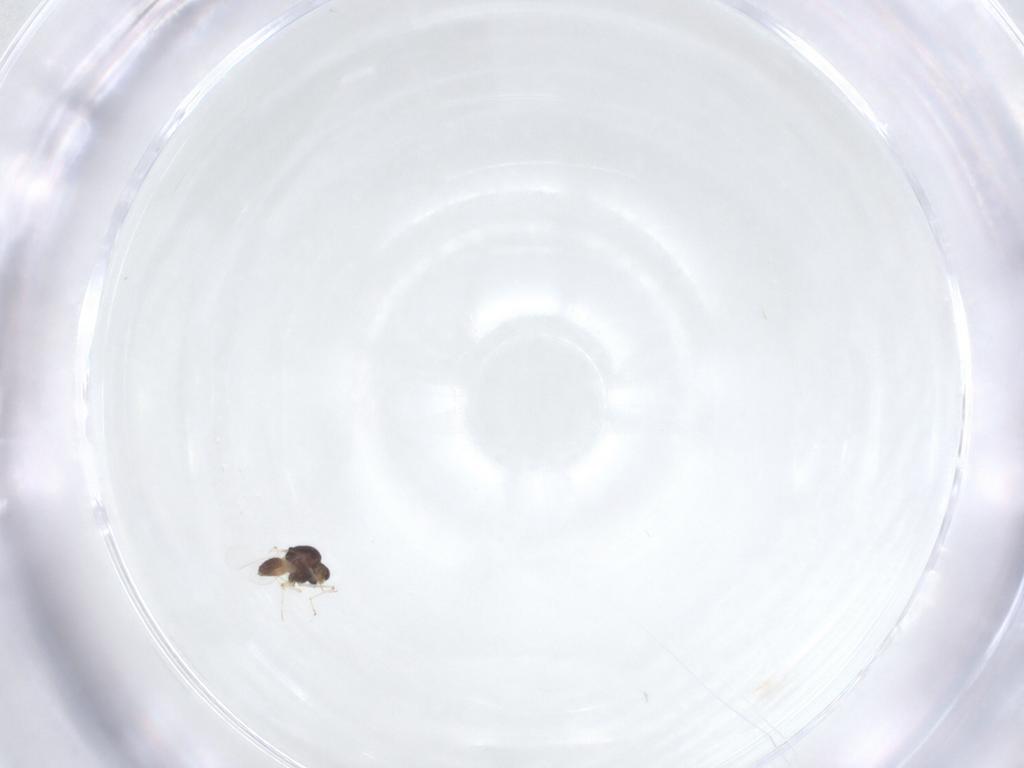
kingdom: Animalia
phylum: Arthropoda
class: Insecta
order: Diptera
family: Chironomidae
